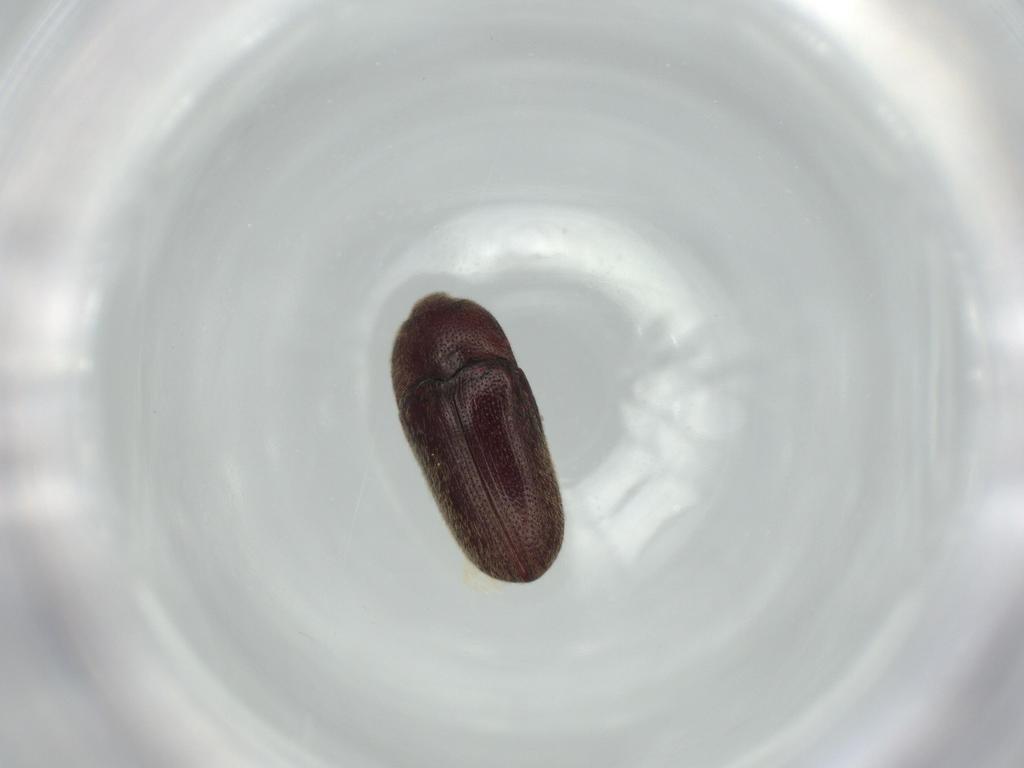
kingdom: Animalia
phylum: Arthropoda
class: Insecta
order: Coleoptera
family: Throscidae
